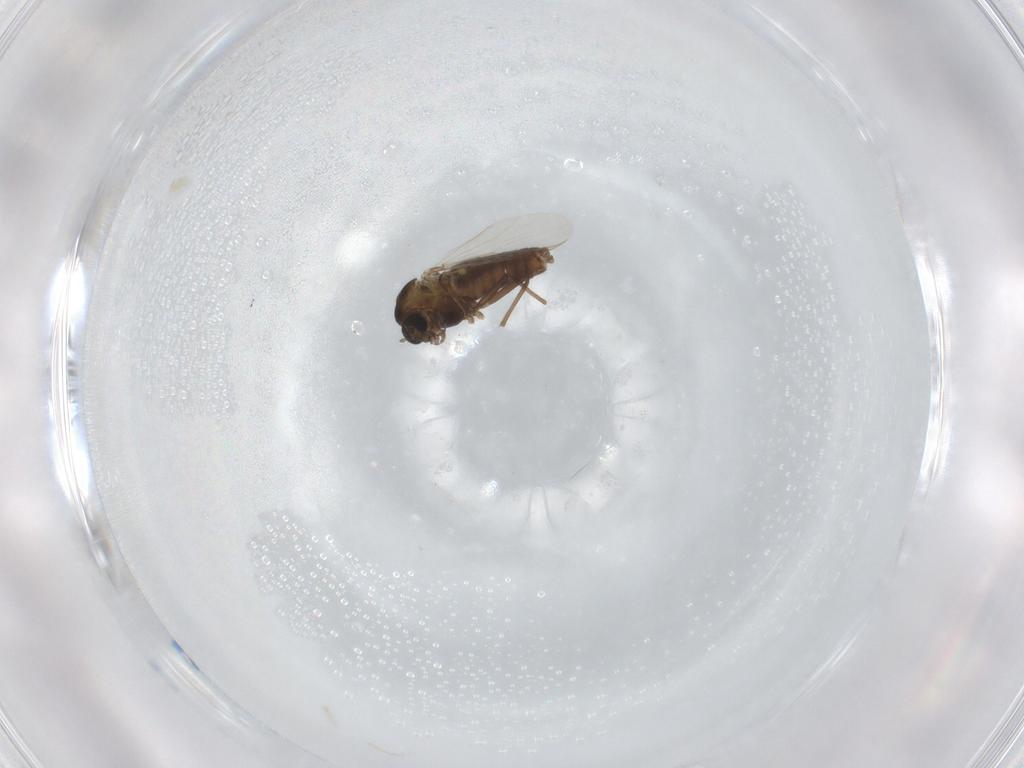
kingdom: Animalia
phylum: Arthropoda
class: Insecta
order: Diptera
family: Chironomidae
